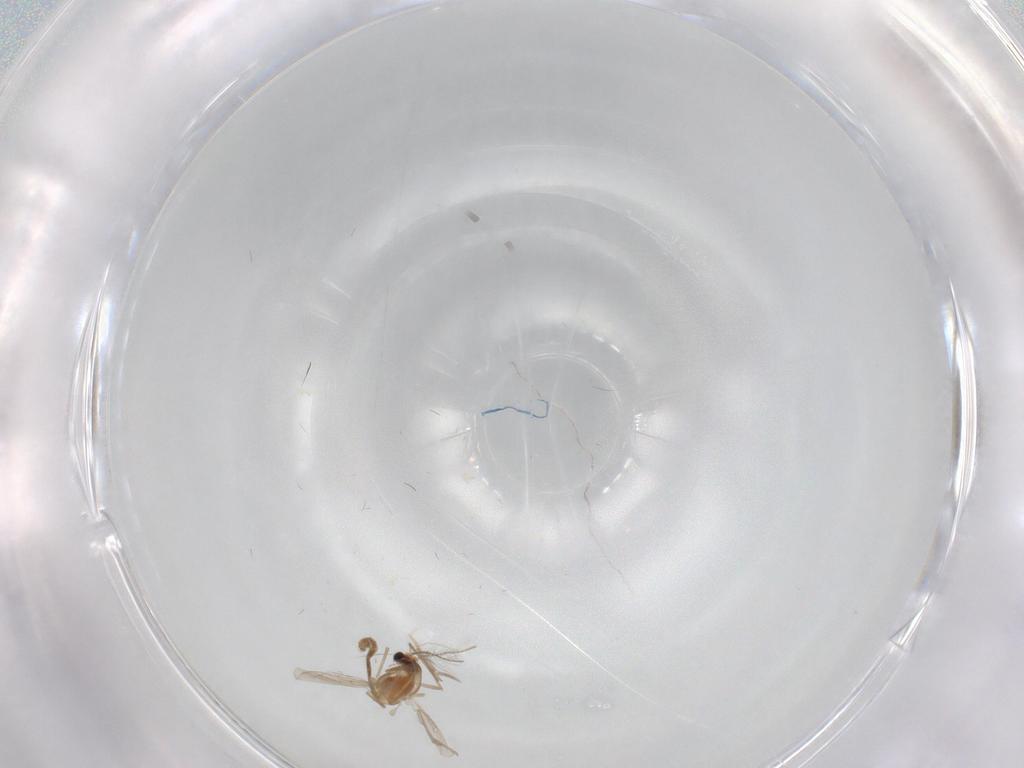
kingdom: Animalia
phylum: Arthropoda
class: Insecta
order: Diptera
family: Chironomidae
